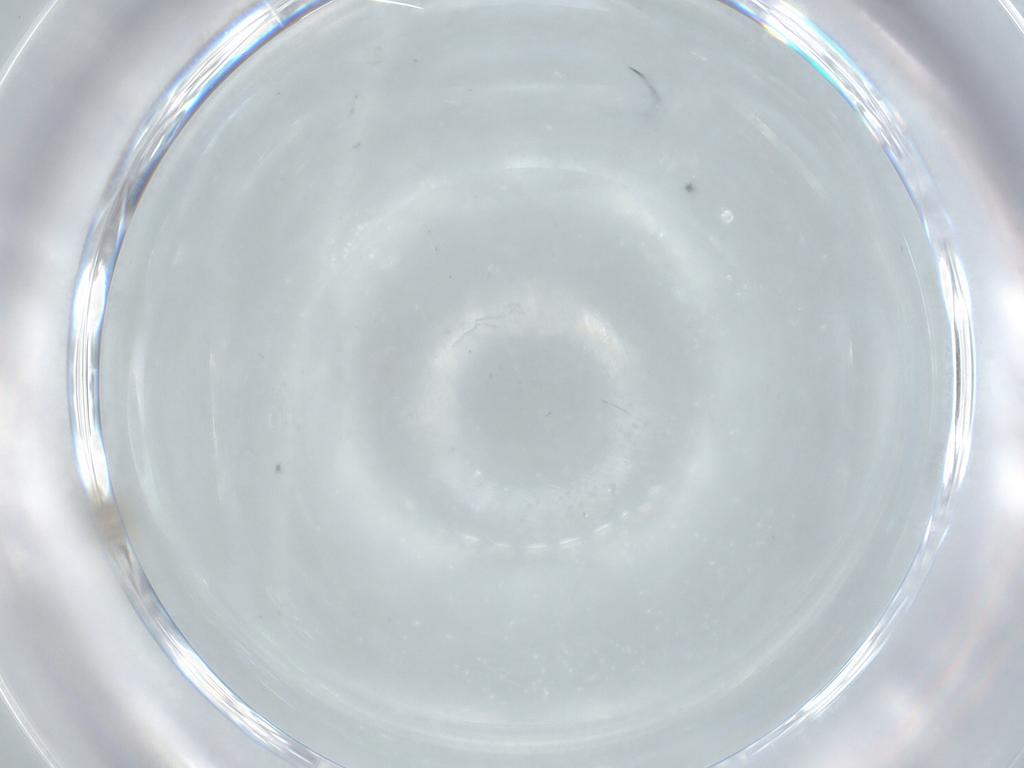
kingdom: Animalia
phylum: Arthropoda
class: Insecta
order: Diptera
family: Cecidomyiidae
